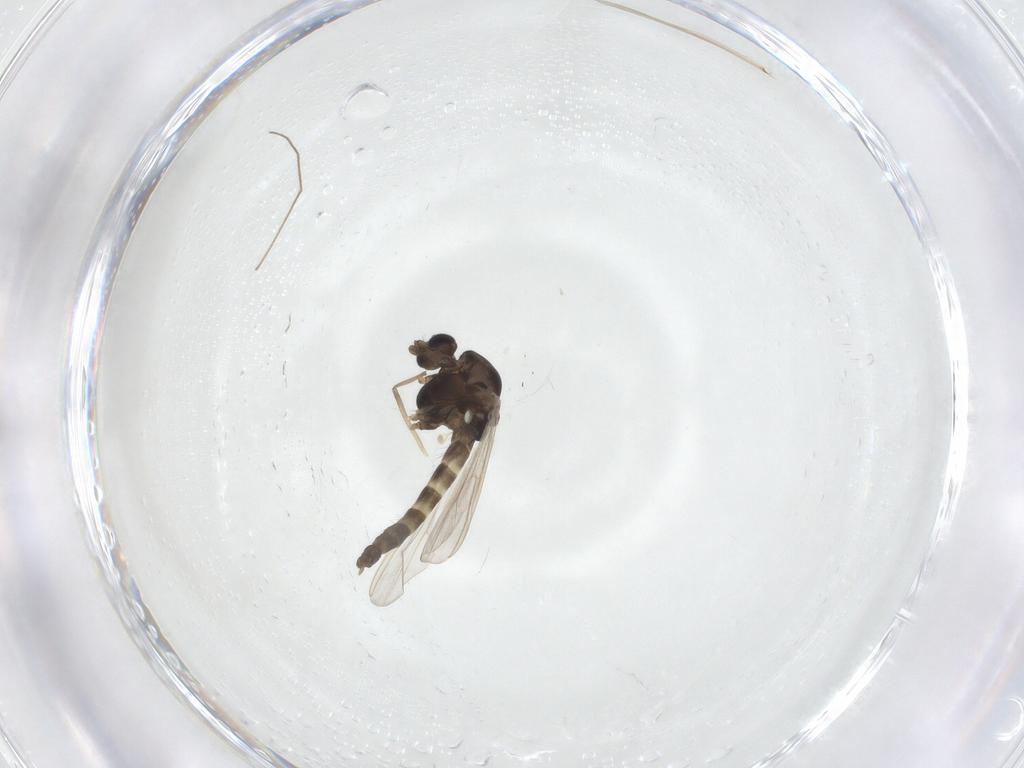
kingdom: Animalia
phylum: Arthropoda
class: Insecta
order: Diptera
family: Chironomidae
